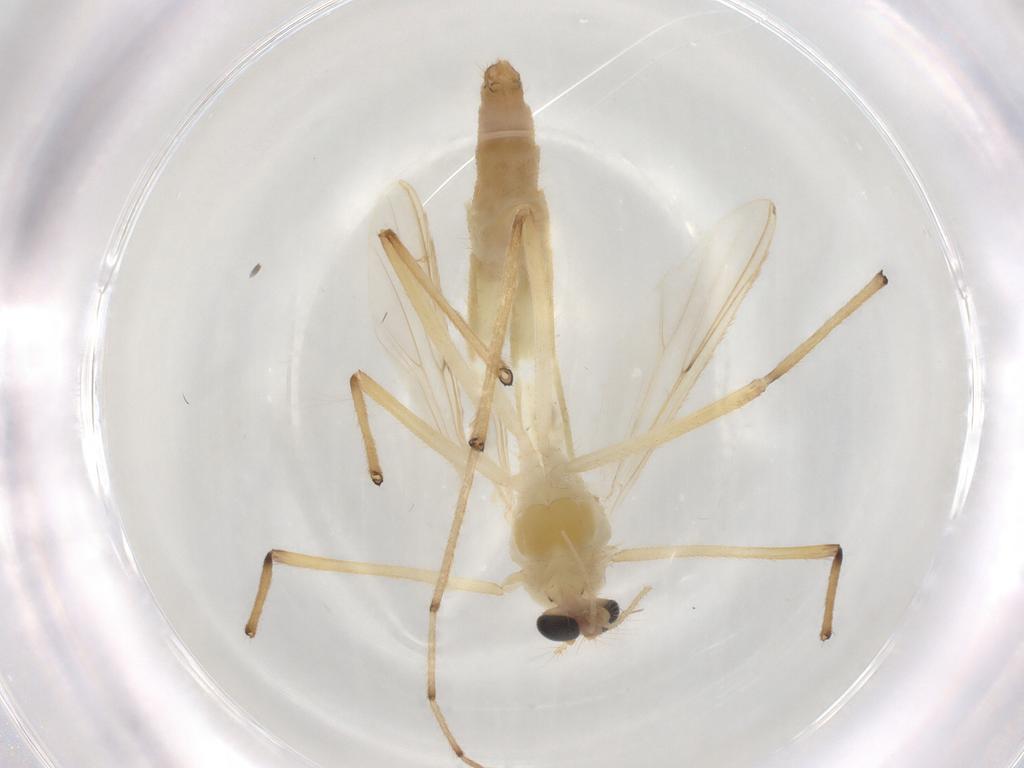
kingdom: Animalia
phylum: Arthropoda
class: Insecta
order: Diptera
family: Chironomidae
